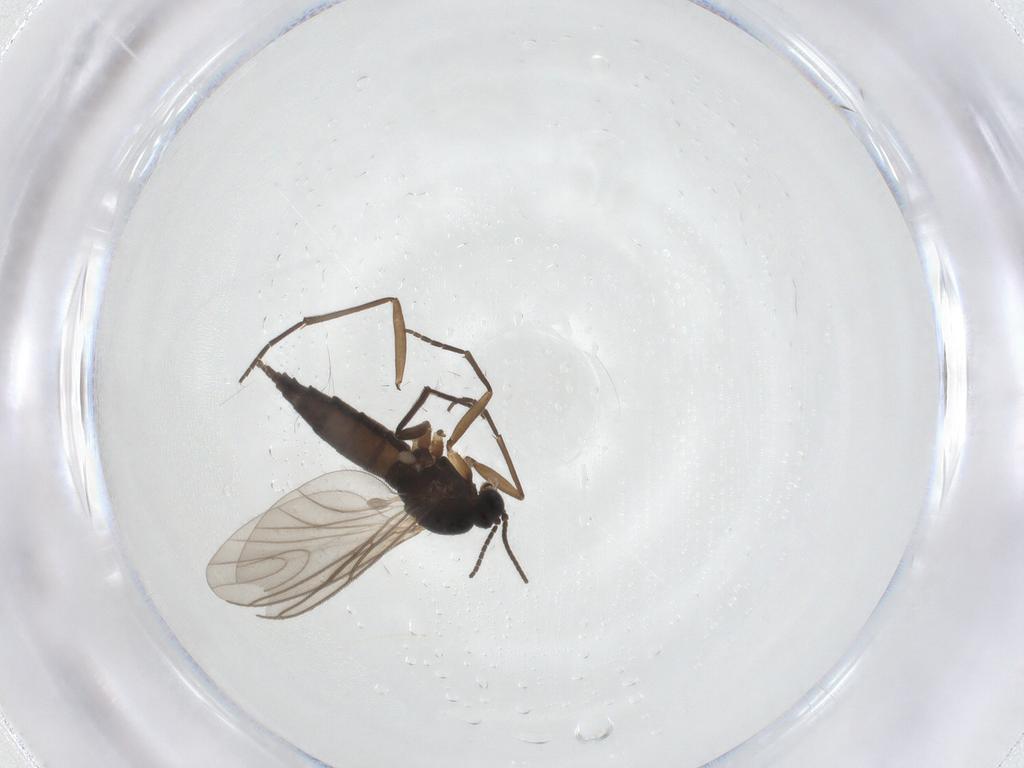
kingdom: Animalia
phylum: Arthropoda
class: Insecta
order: Diptera
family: Sciaridae
